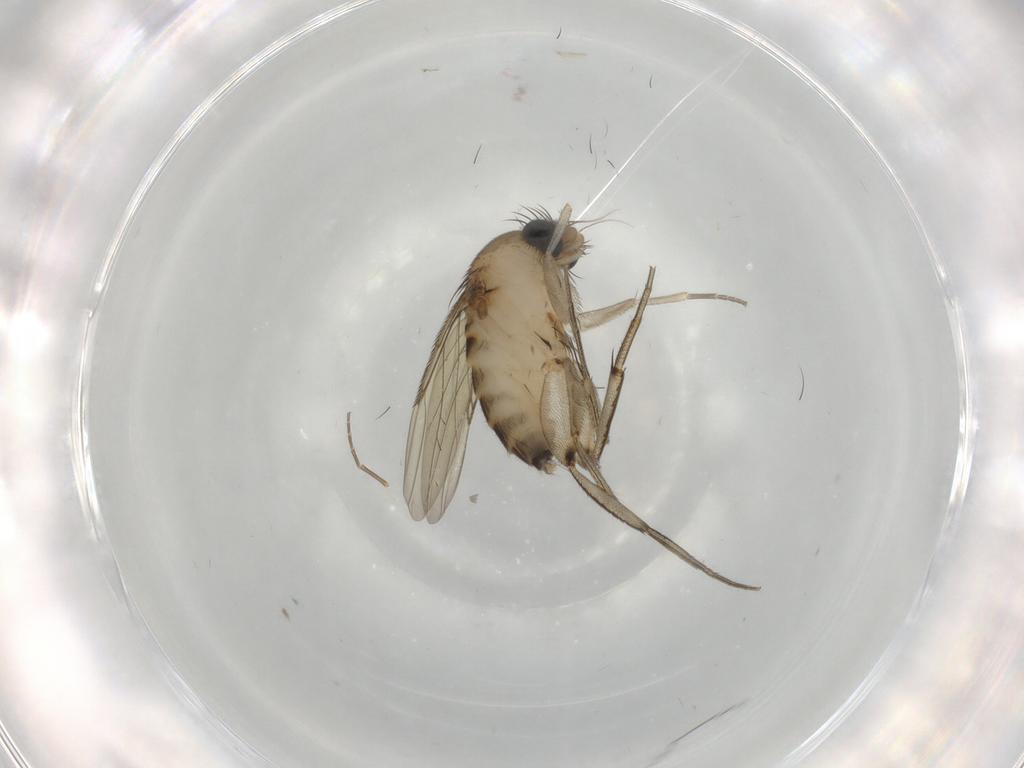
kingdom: Animalia
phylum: Arthropoda
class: Insecta
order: Diptera
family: Phoridae
